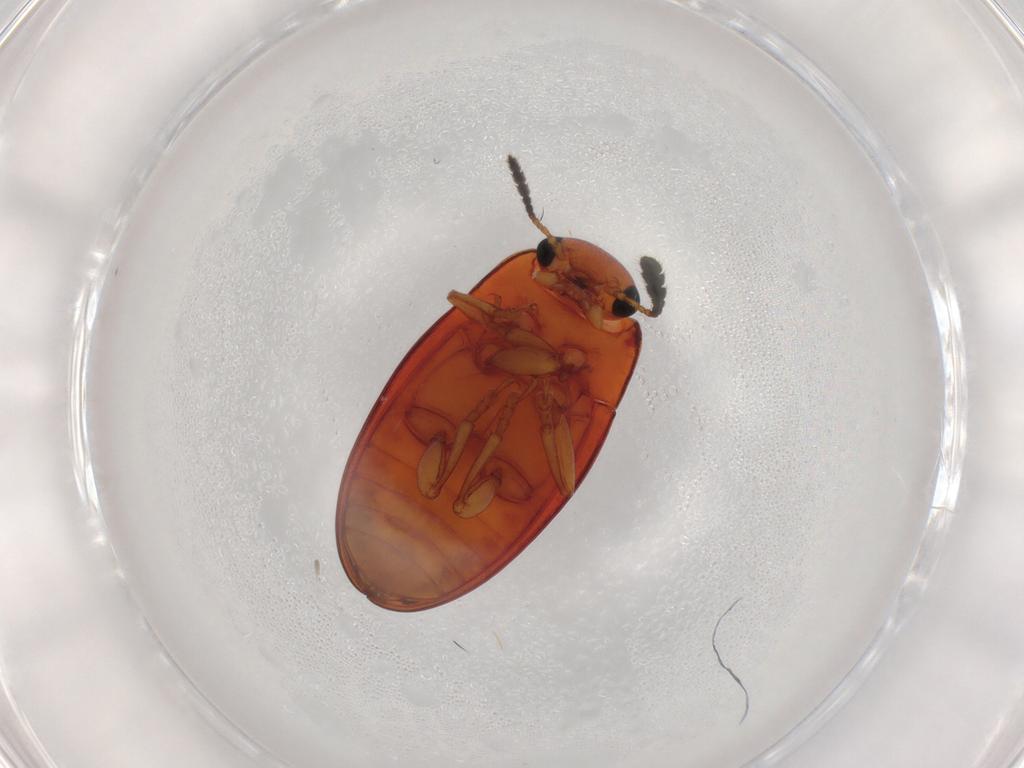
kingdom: Animalia
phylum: Arthropoda
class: Insecta
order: Coleoptera
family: Erotylidae
